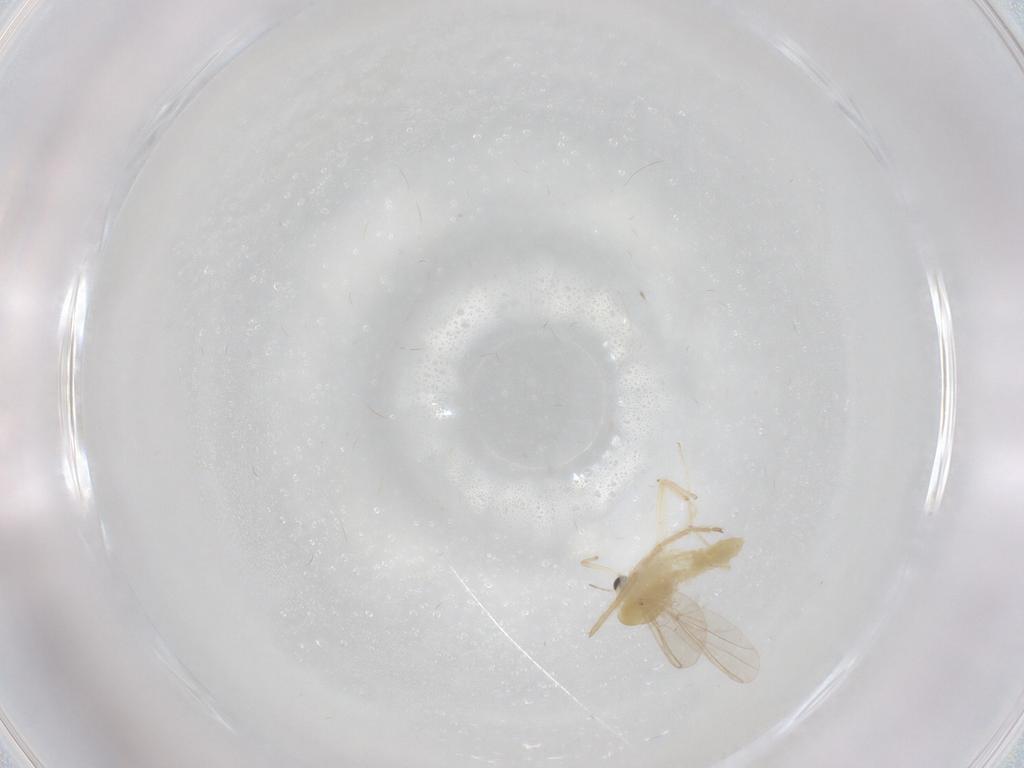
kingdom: Animalia
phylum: Arthropoda
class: Insecta
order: Diptera
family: Chironomidae
